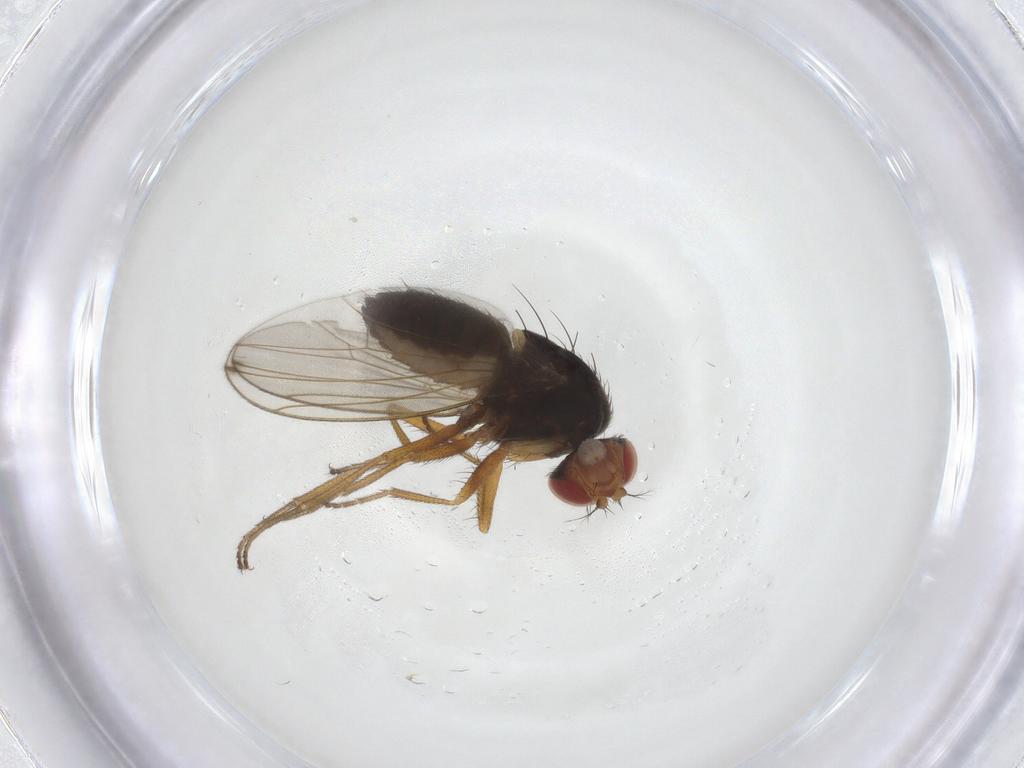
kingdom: Animalia
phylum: Arthropoda
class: Insecta
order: Diptera
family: Drosophilidae
